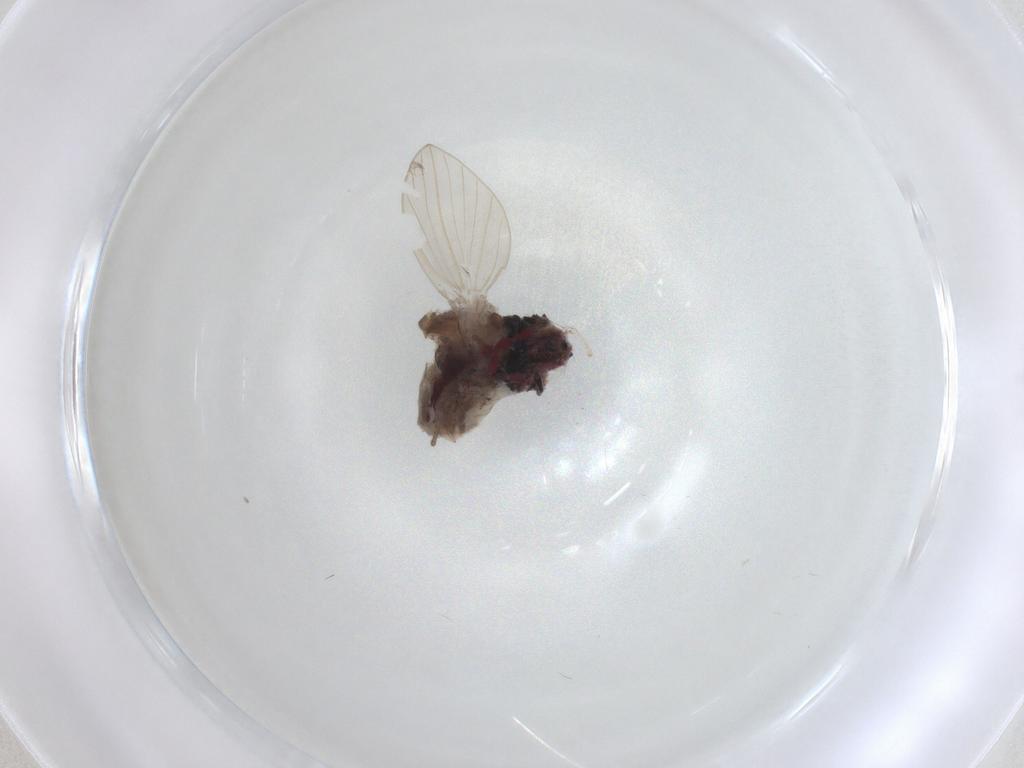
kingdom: Animalia
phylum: Arthropoda
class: Insecta
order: Diptera
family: Psychodidae
